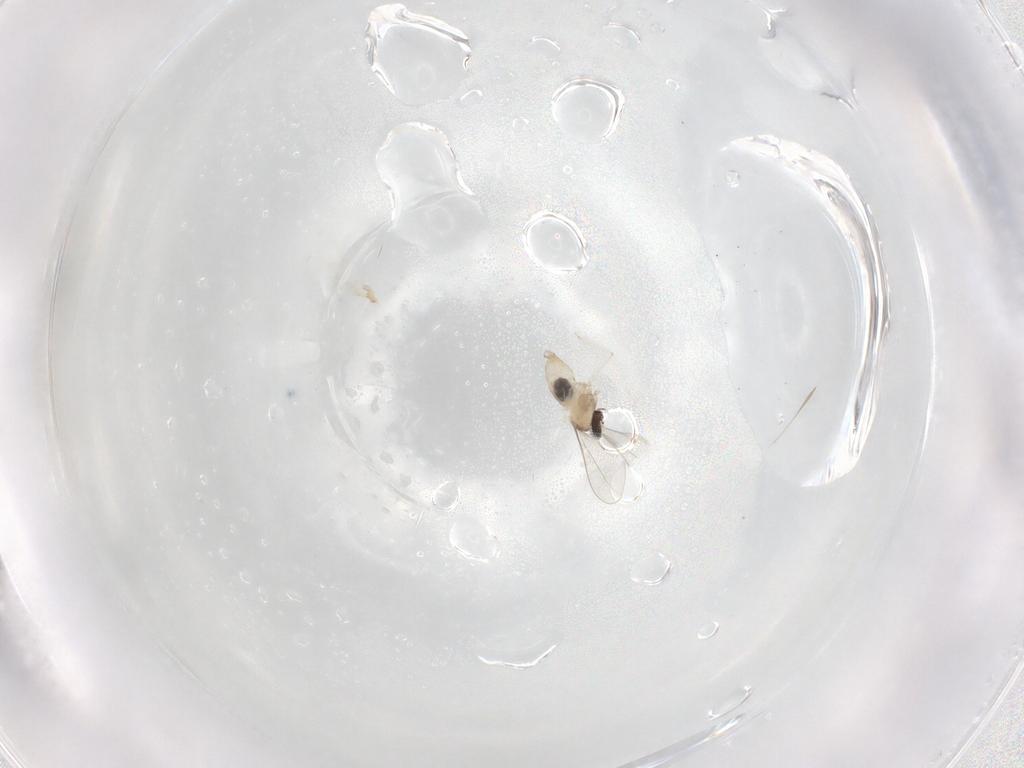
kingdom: Animalia
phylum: Arthropoda
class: Insecta
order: Diptera
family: Cecidomyiidae
